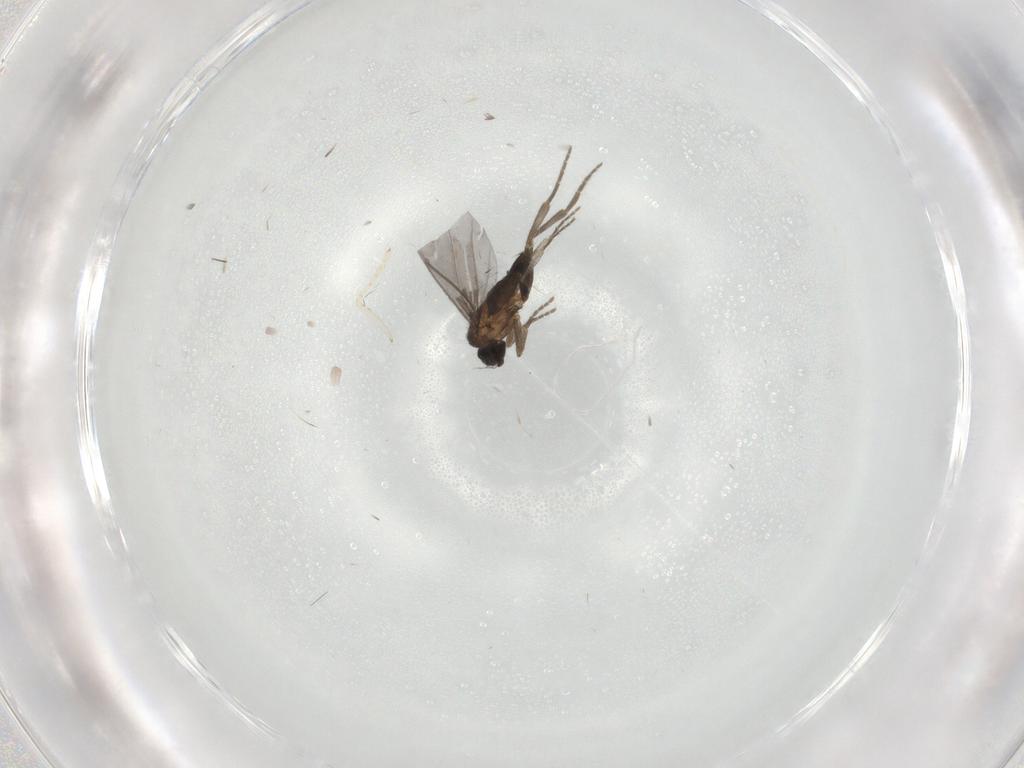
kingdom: Animalia
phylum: Arthropoda
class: Insecta
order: Diptera
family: Phoridae
